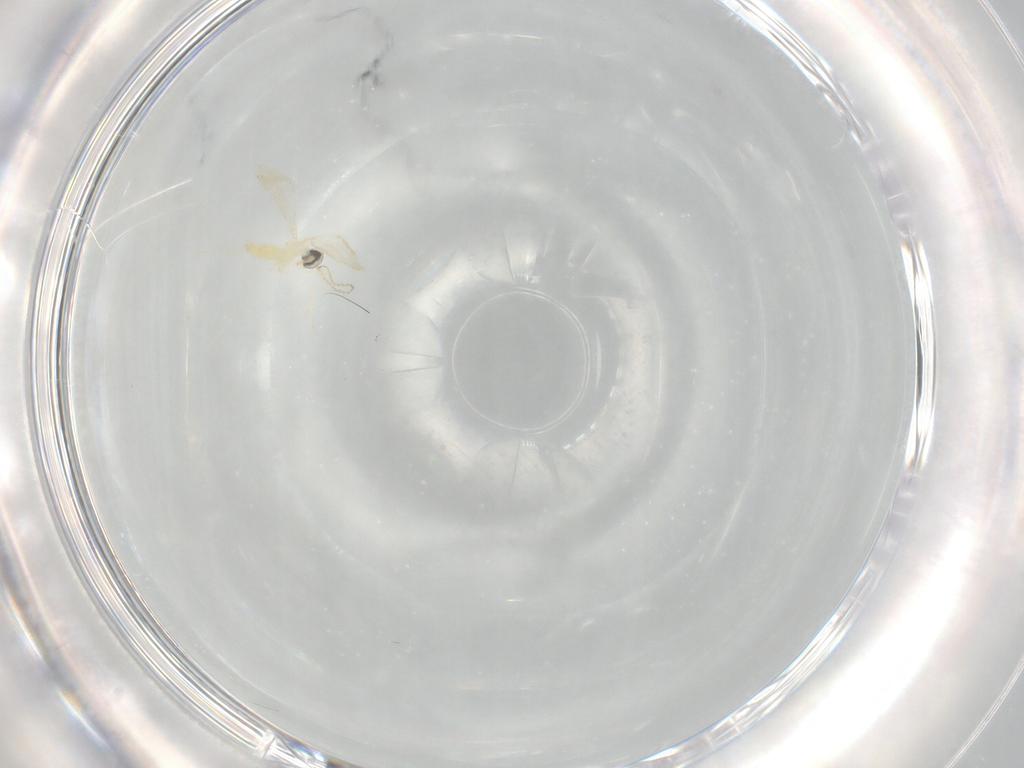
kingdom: Animalia
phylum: Arthropoda
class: Insecta
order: Diptera
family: Cecidomyiidae
